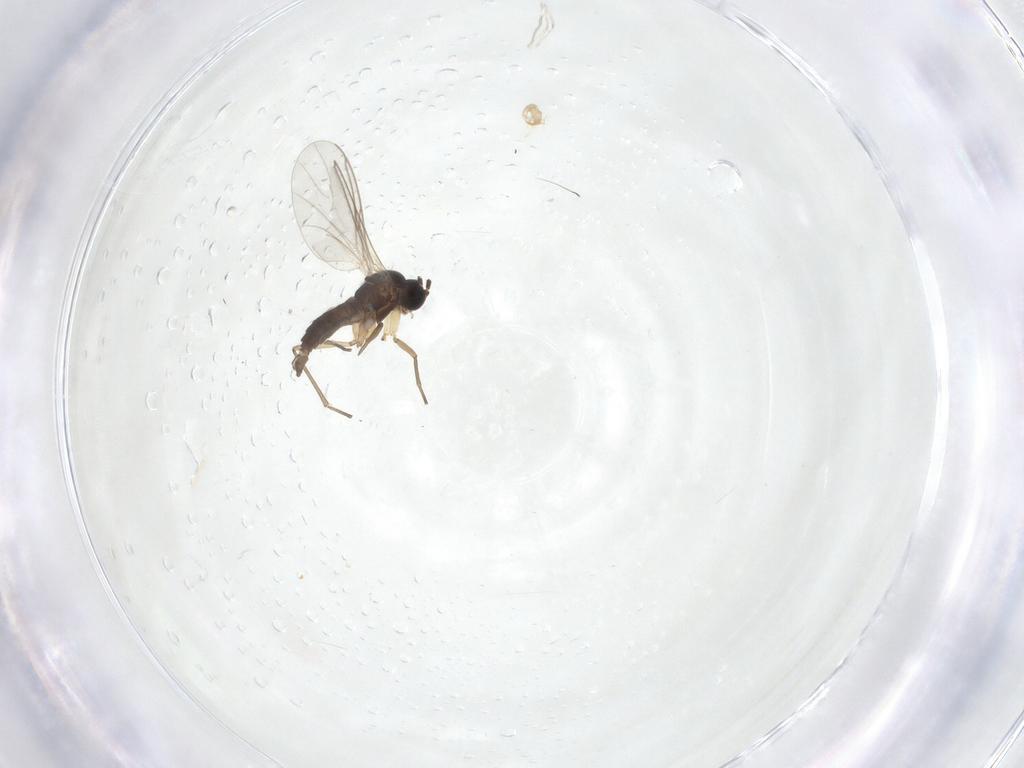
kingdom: Animalia
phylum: Arthropoda
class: Insecta
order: Diptera
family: Sciaridae
